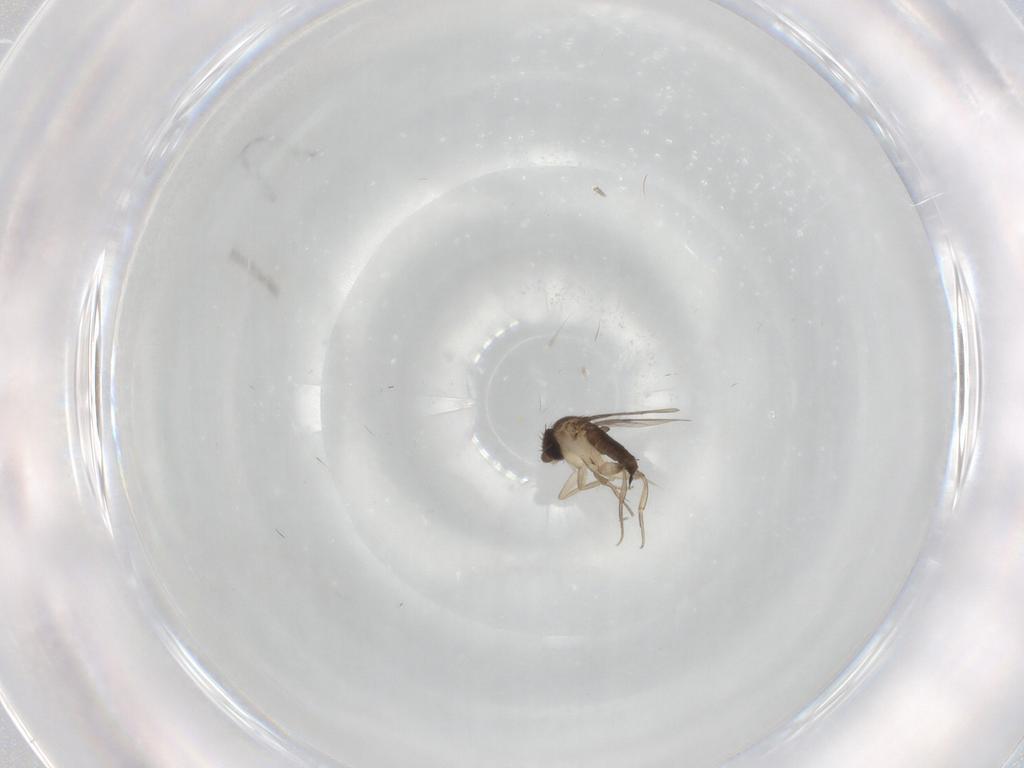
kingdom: Animalia
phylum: Arthropoda
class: Insecta
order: Diptera
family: Phoridae
